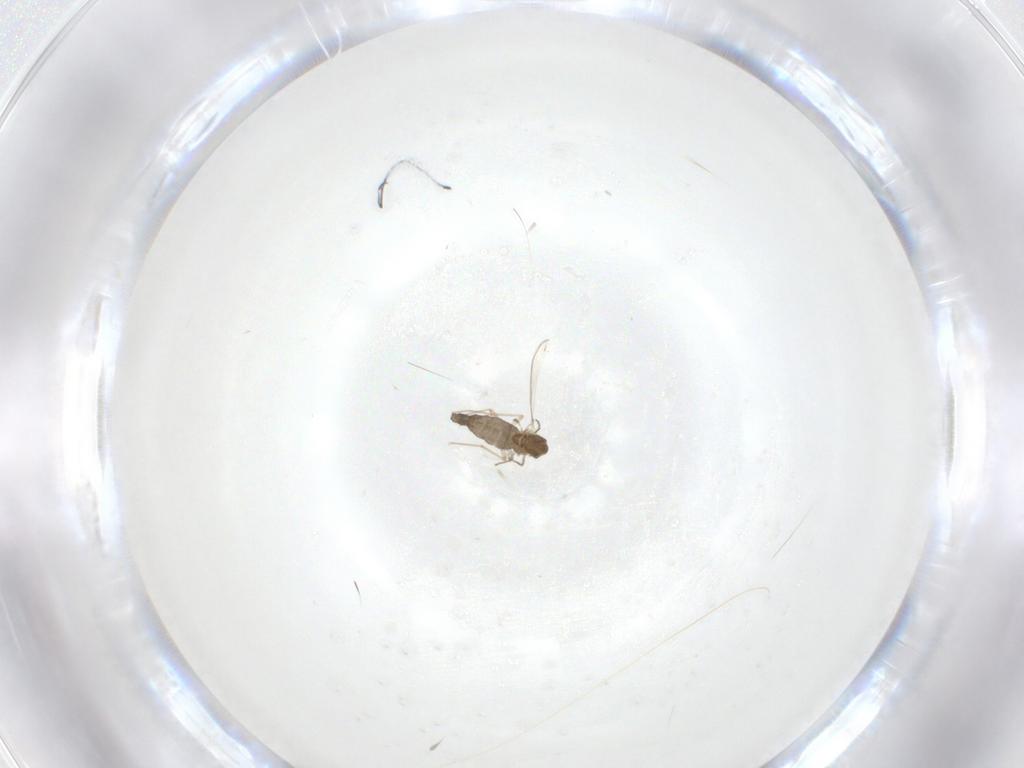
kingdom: Animalia
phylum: Arthropoda
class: Insecta
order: Diptera
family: Chironomidae
